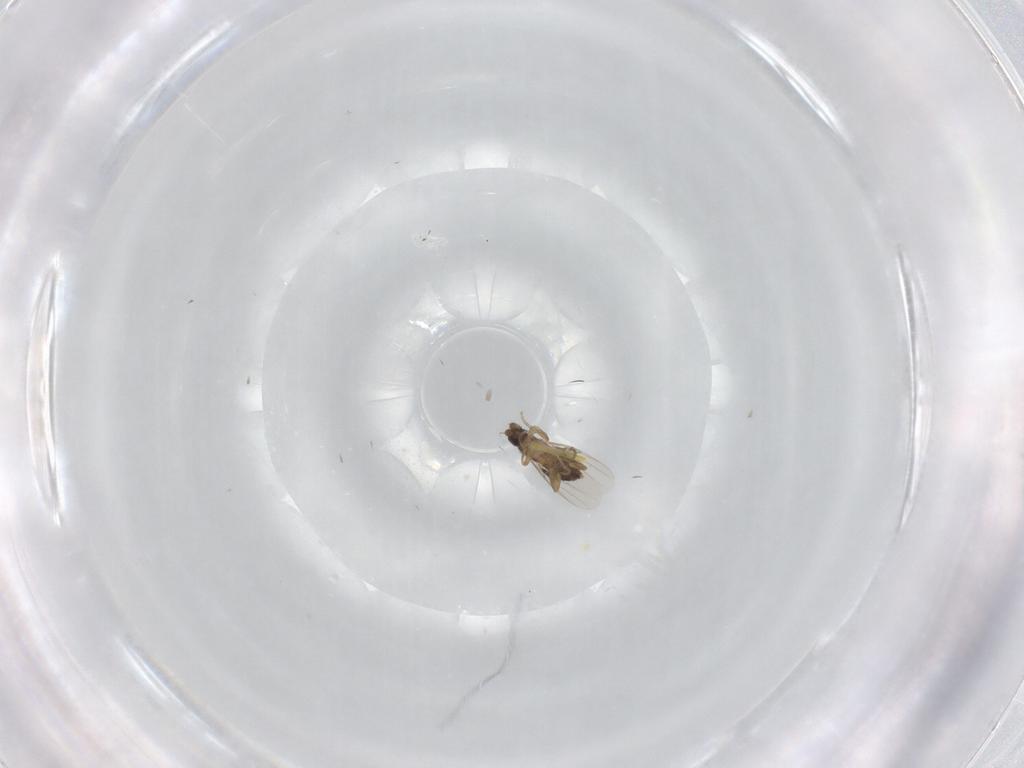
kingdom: Animalia
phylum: Arthropoda
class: Insecta
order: Diptera
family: Phoridae
